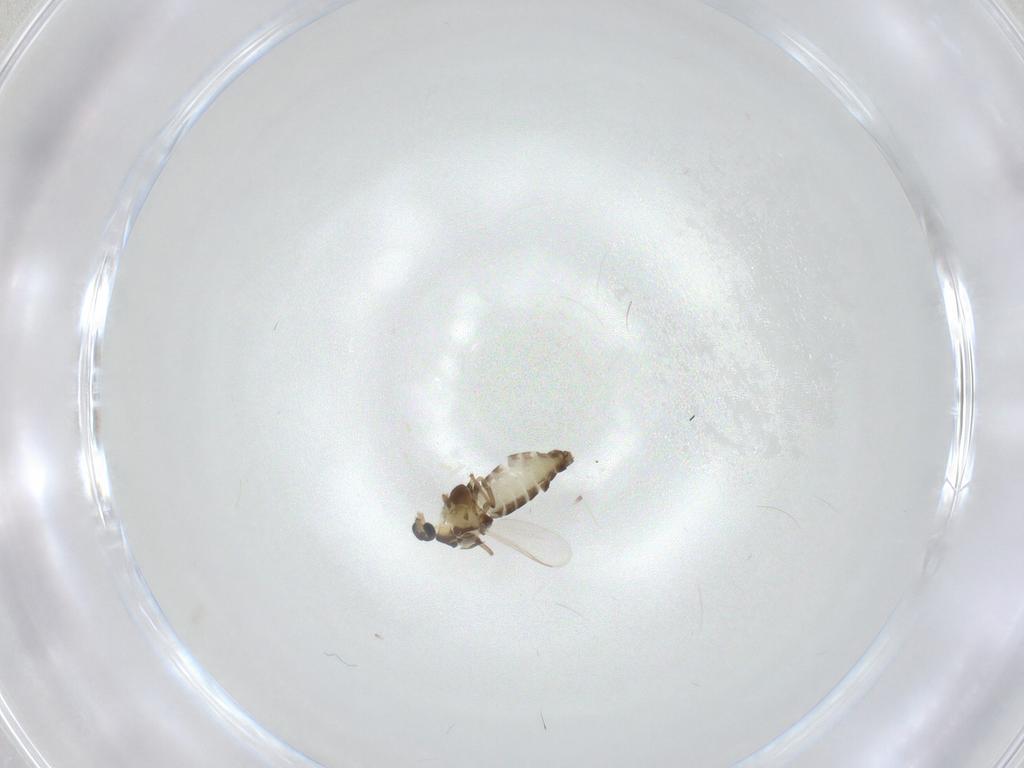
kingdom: Animalia
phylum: Arthropoda
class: Insecta
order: Diptera
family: Chironomidae
